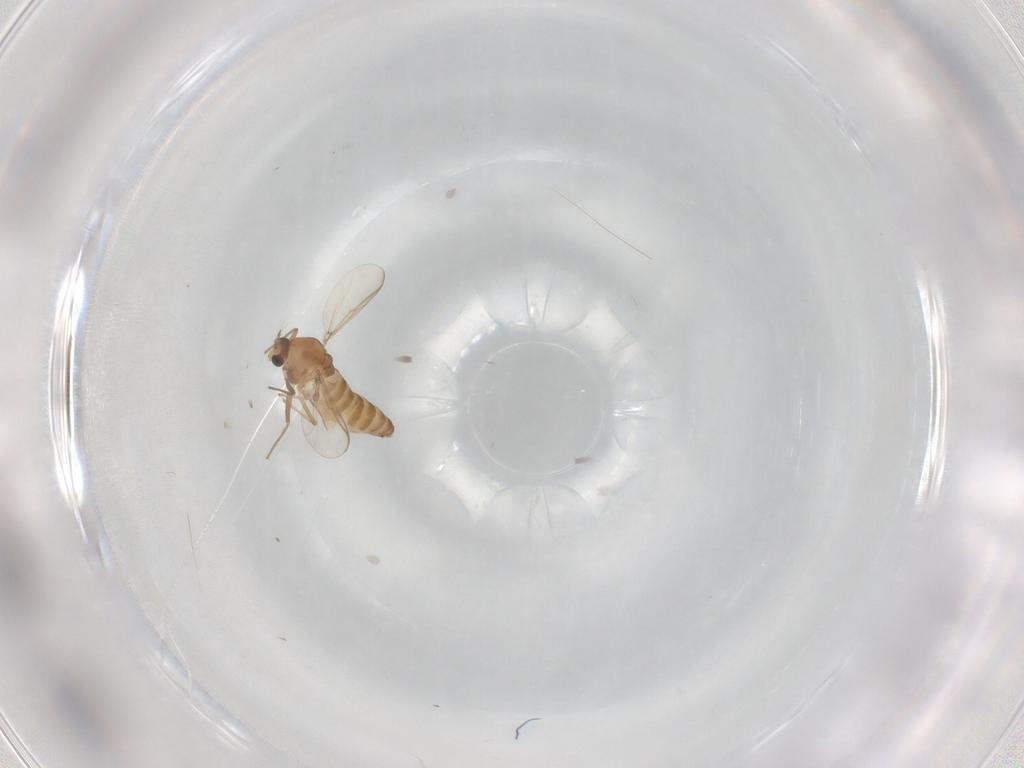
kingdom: Animalia
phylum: Arthropoda
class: Insecta
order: Diptera
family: Chironomidae
